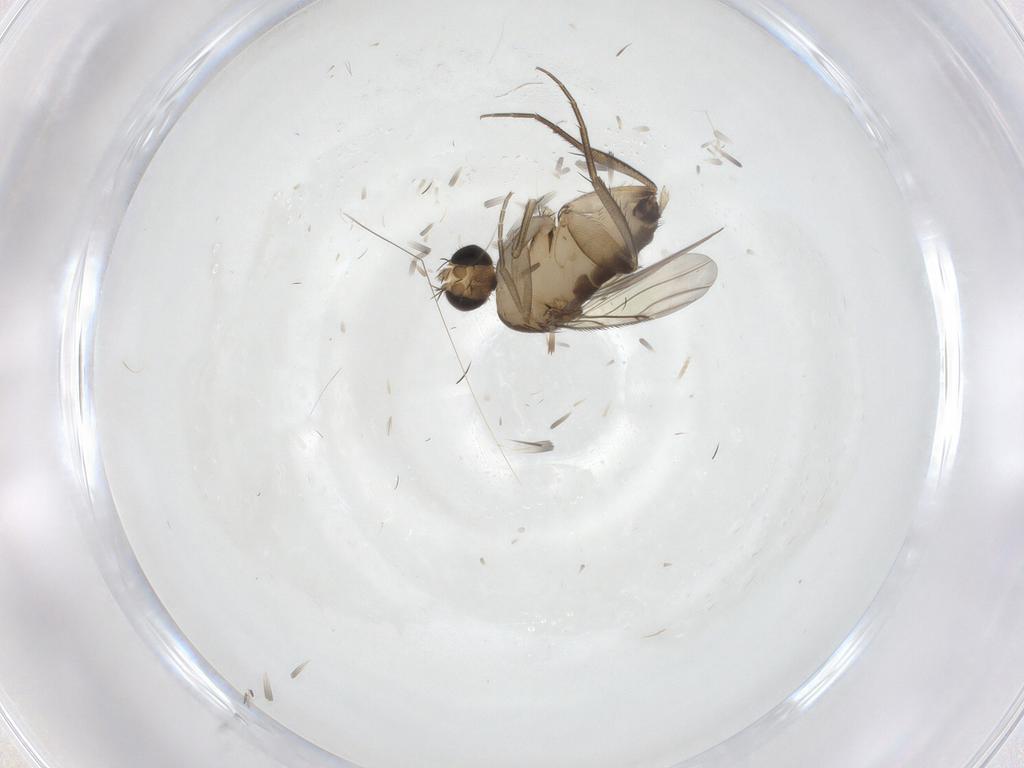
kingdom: Animalia
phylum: Arthropoda
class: Insecta
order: Diptera
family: Phoridae
